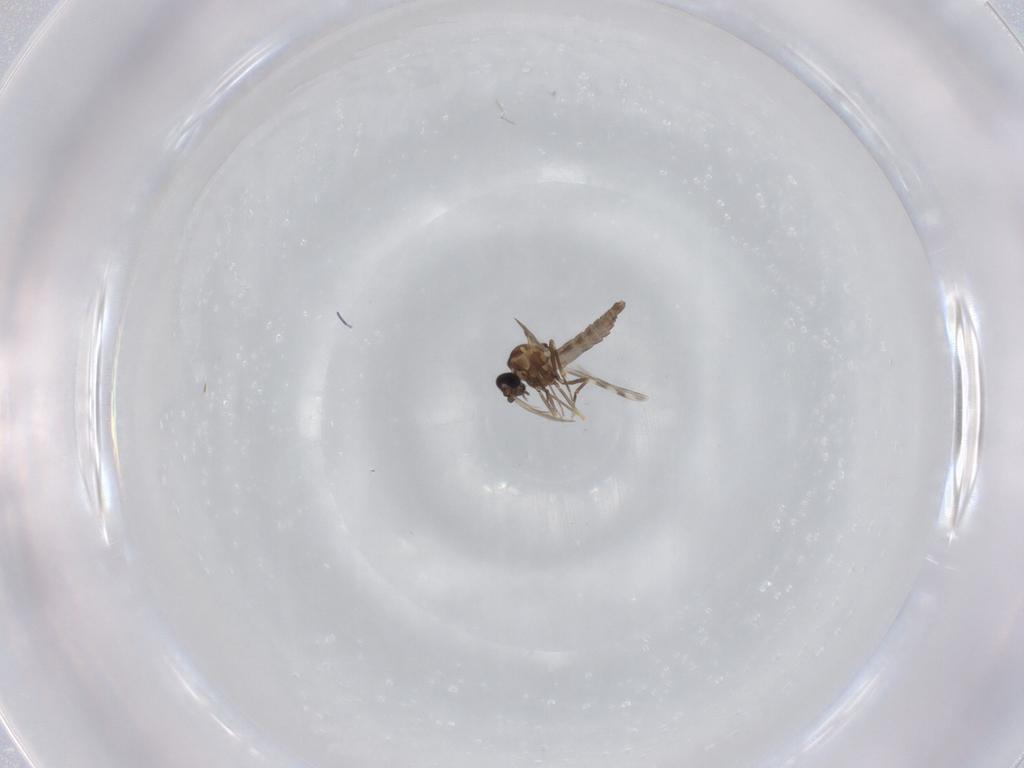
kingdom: Animalia
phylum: Arthropoda
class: Insecta
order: Diptera
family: Ceratopogonidae
